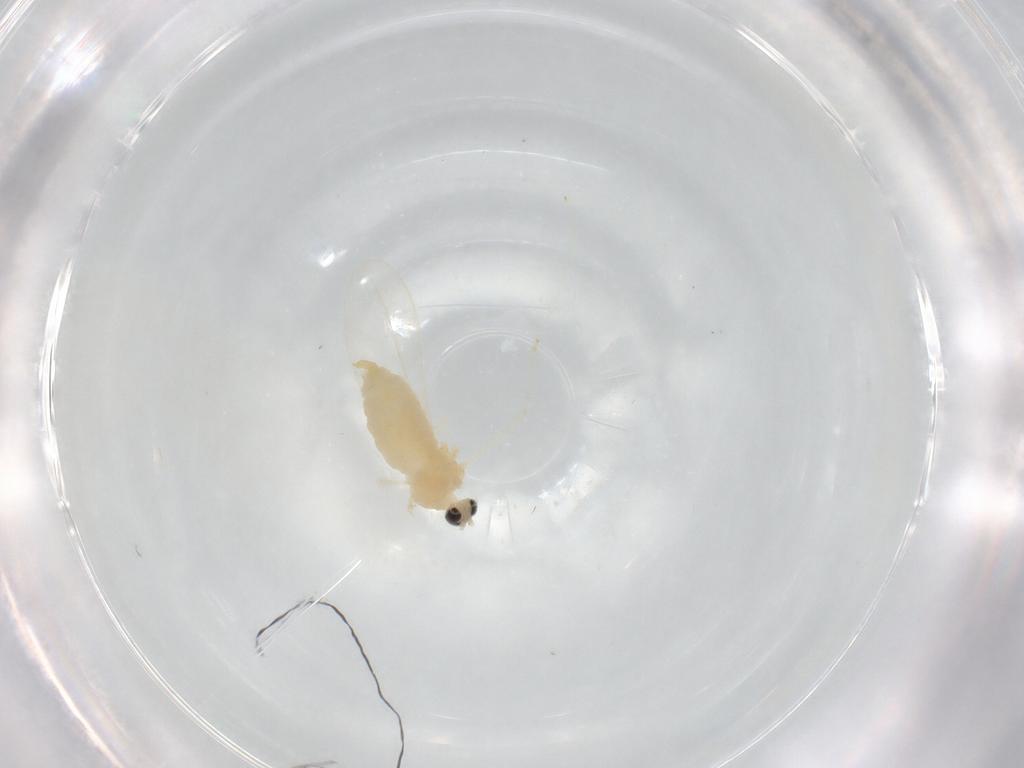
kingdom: Animalia
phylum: Arthropoda
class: Insecta
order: Diptera
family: Cecidomyiidae
